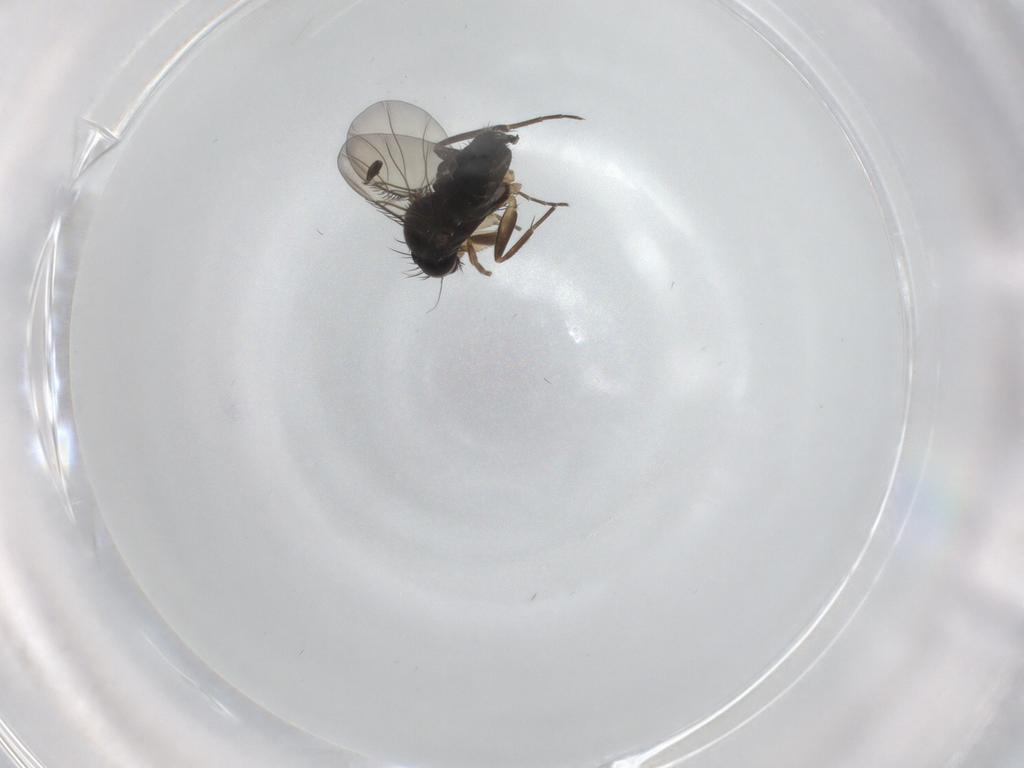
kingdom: Animalia
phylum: Arthropoda
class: Insecta
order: Diptera
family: Phoridae
